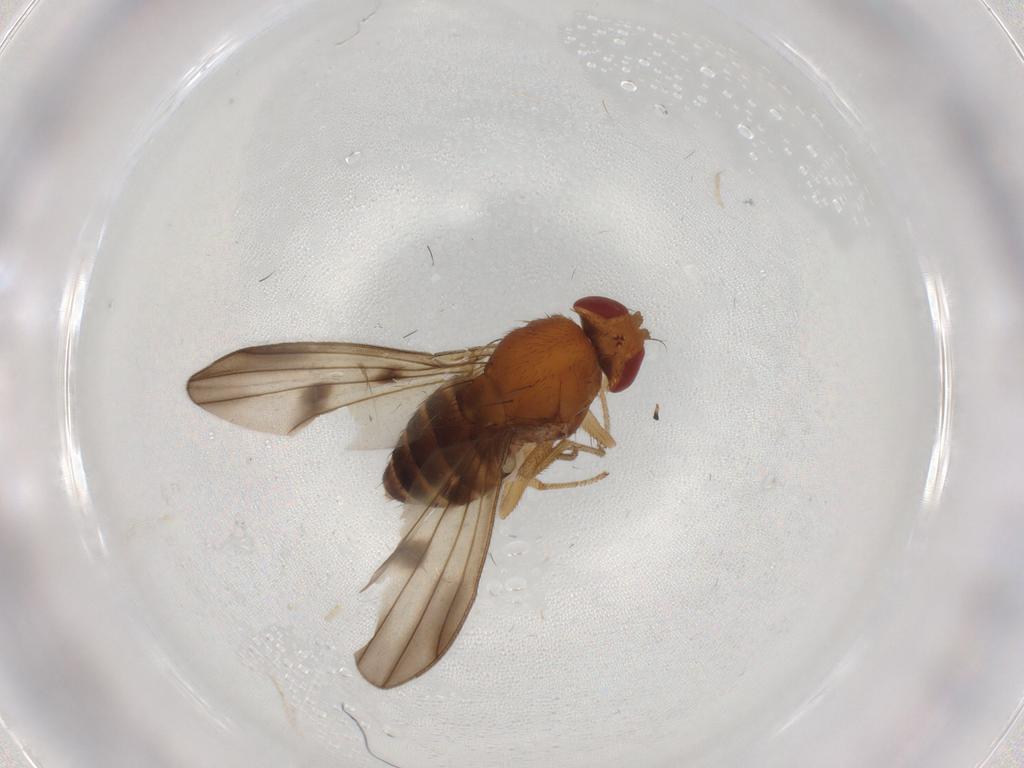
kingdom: Animalia
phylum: Arthropoda
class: Insecta
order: Diptera
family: Drosophilidae
